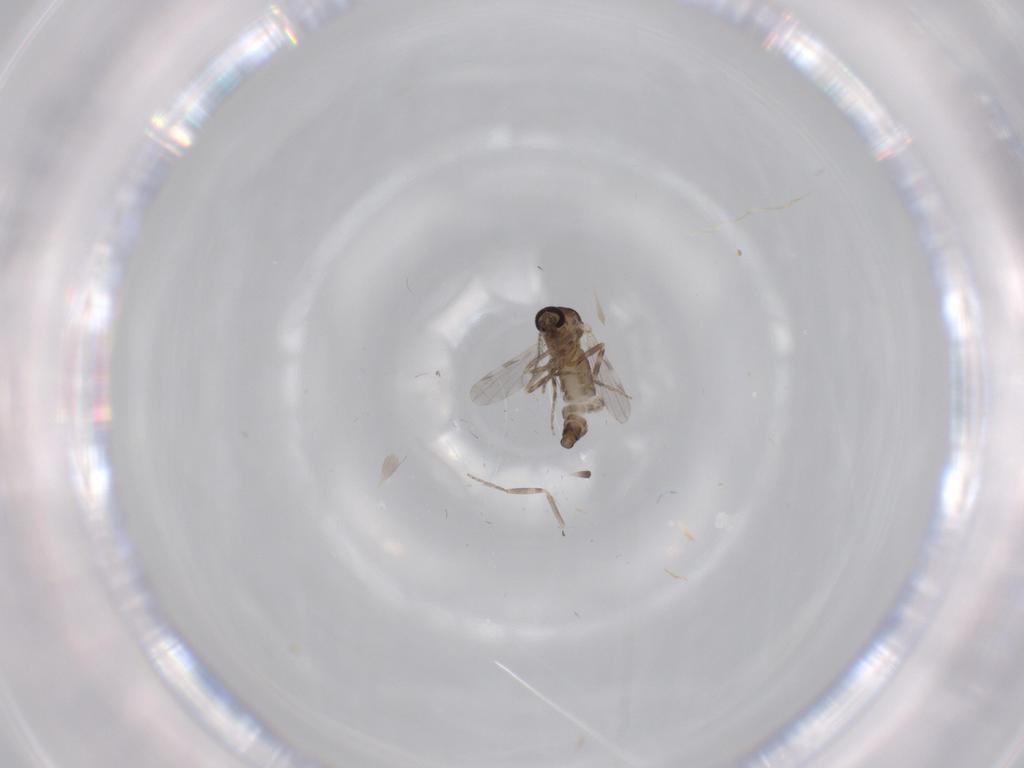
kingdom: Animalia
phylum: Arthropoda
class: Insecta
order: Diptera
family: Ceratopogonidae
